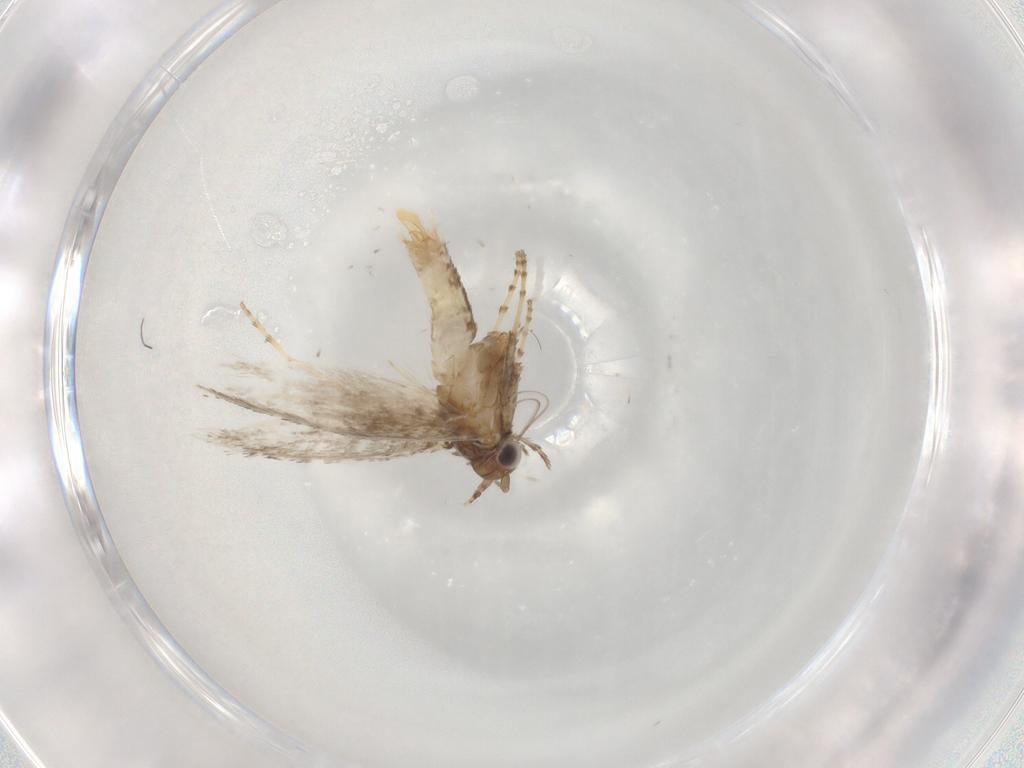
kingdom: Animalia
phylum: Arthropoda
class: Insecta
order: Lepidoptera
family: Gracillariidae
